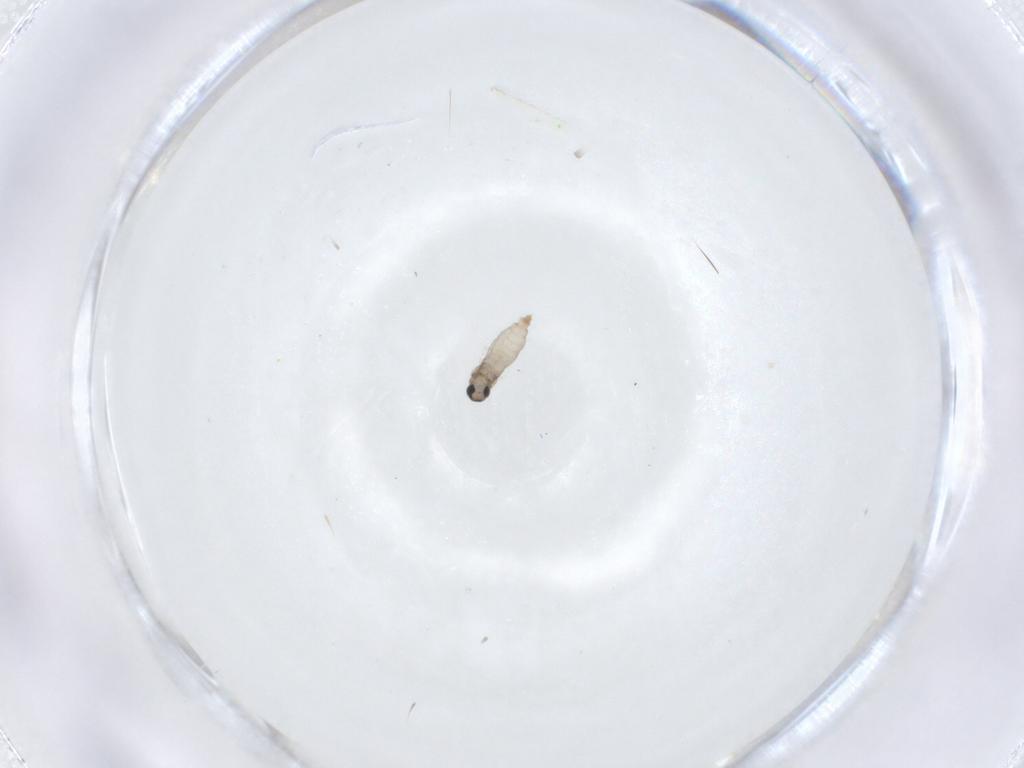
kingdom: Animalia
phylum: Arthropoda
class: Insecta
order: Diptera
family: Cecidomyiidae
